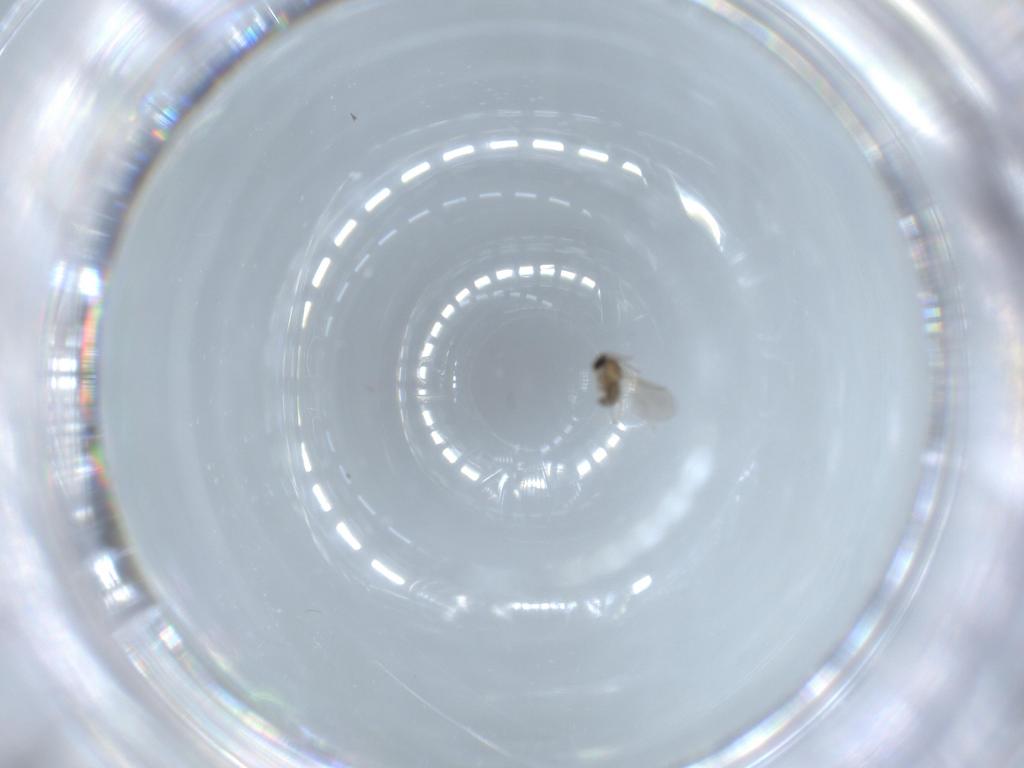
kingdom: Animalia
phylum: Arthropoda
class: Insecta
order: Diptera
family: Cecidomyiidae
